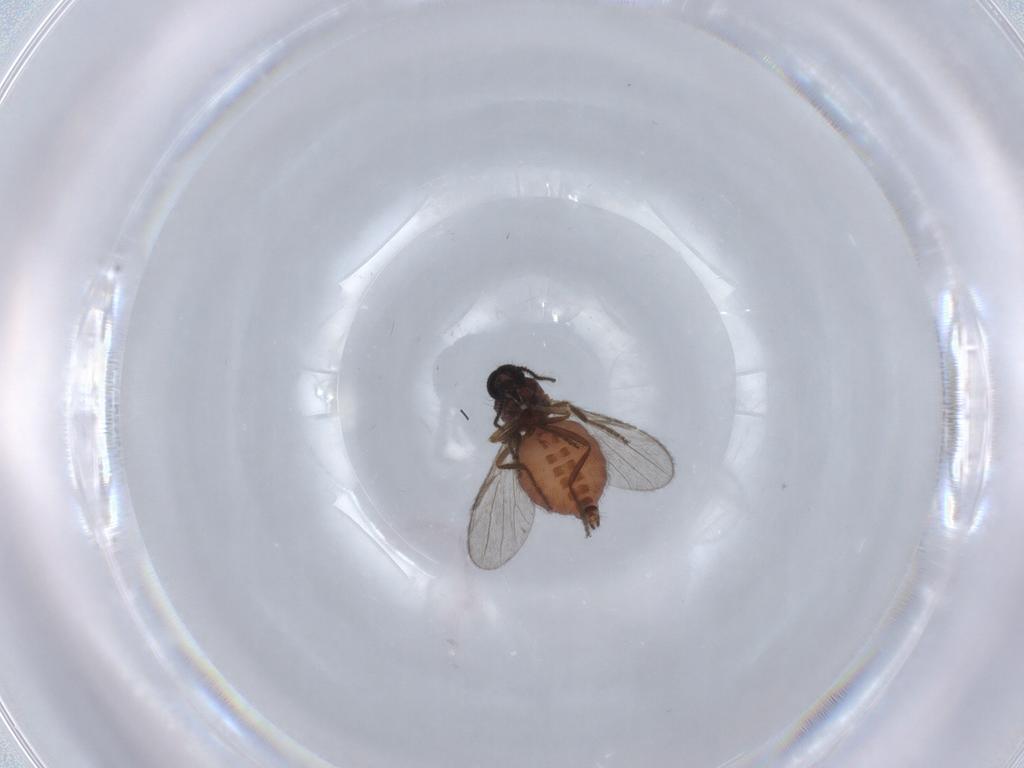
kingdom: Animalia
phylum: Arthropoda
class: Insecta
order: Diptera
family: Ceratopogonidae
